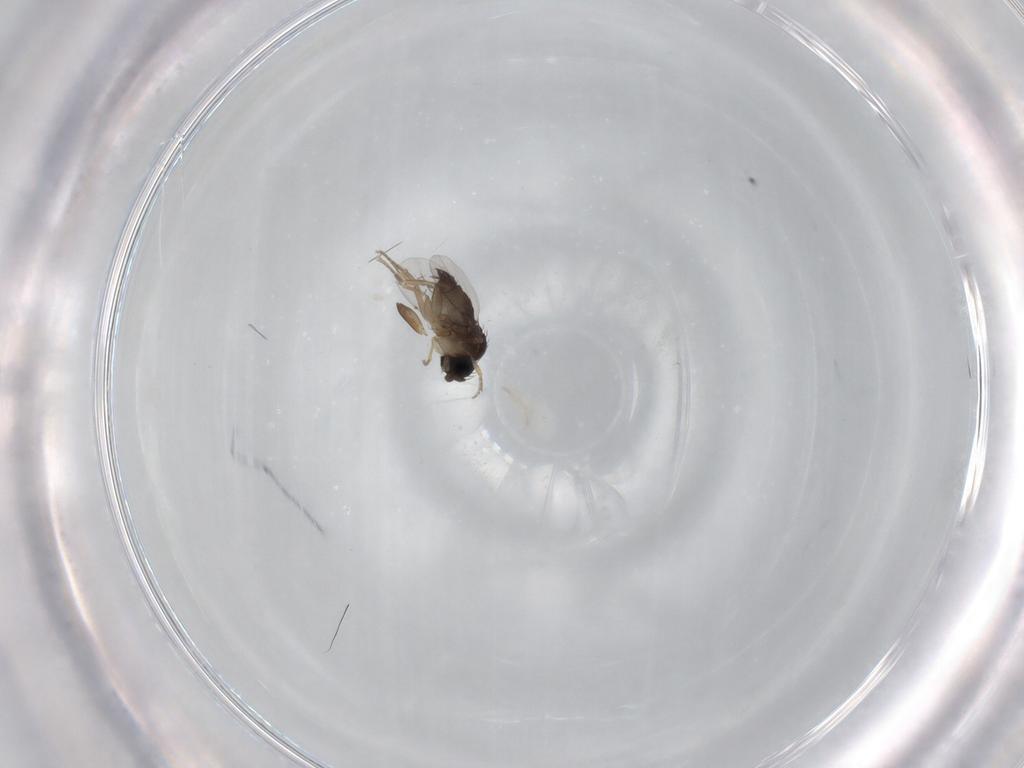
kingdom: Animalia
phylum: Arthropoda
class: Insecta
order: Diptera
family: Phoridae
